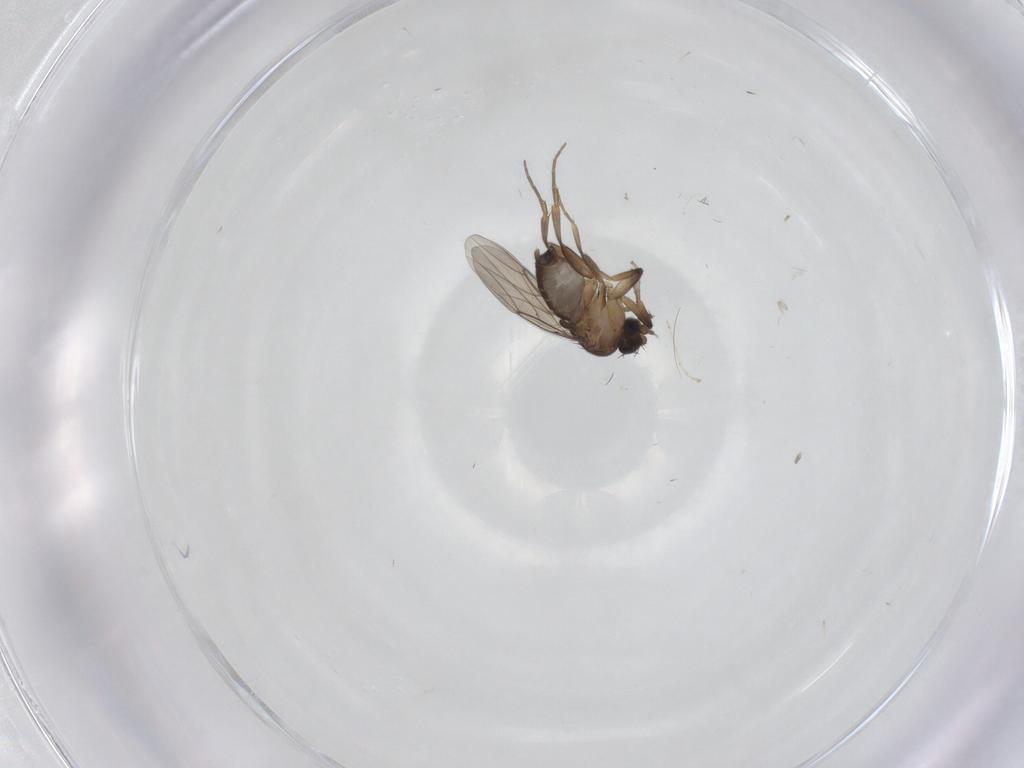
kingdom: Animalia
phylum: Arthropoda
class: Insecta
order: Diptera
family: Phoridae
